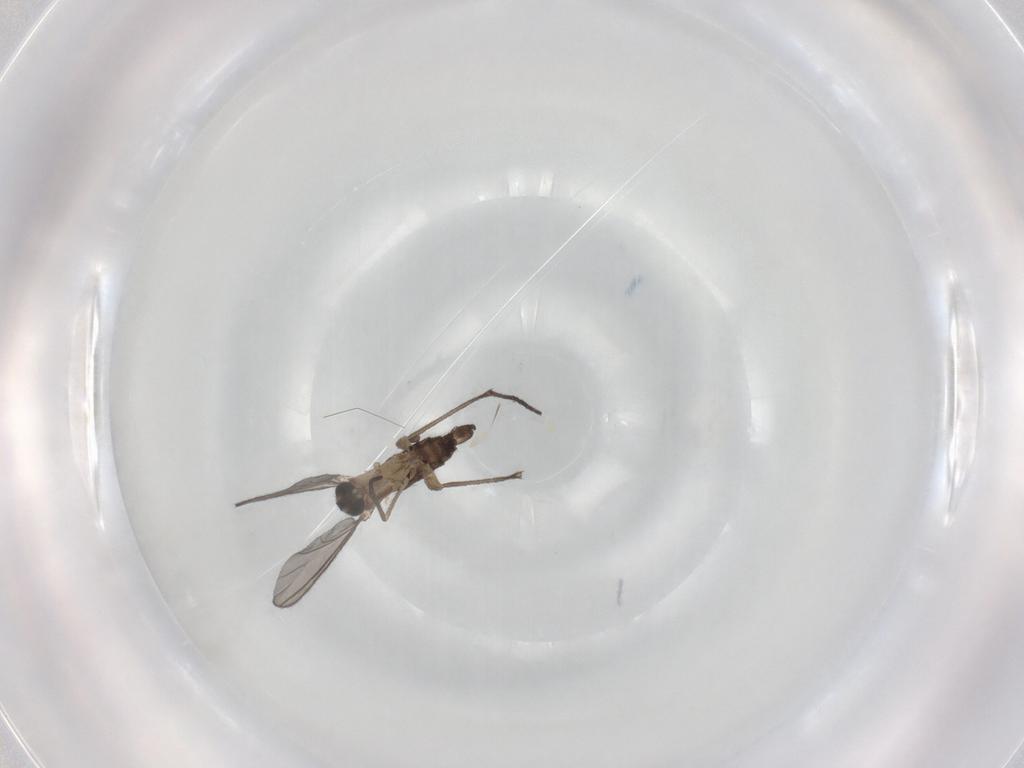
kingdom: Animalia
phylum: Arthropoda
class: Insecta
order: Diptera
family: Sciaridae
